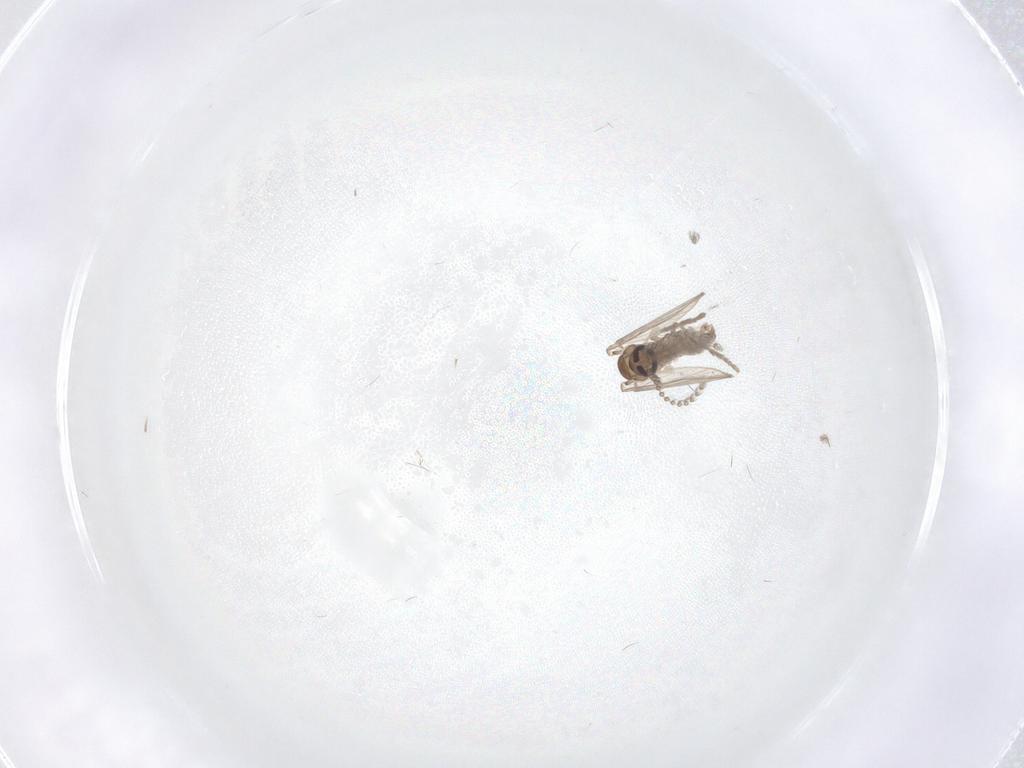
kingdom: Animalia
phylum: Arthropoda
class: Insecta
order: Diptera
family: Psychodidae
